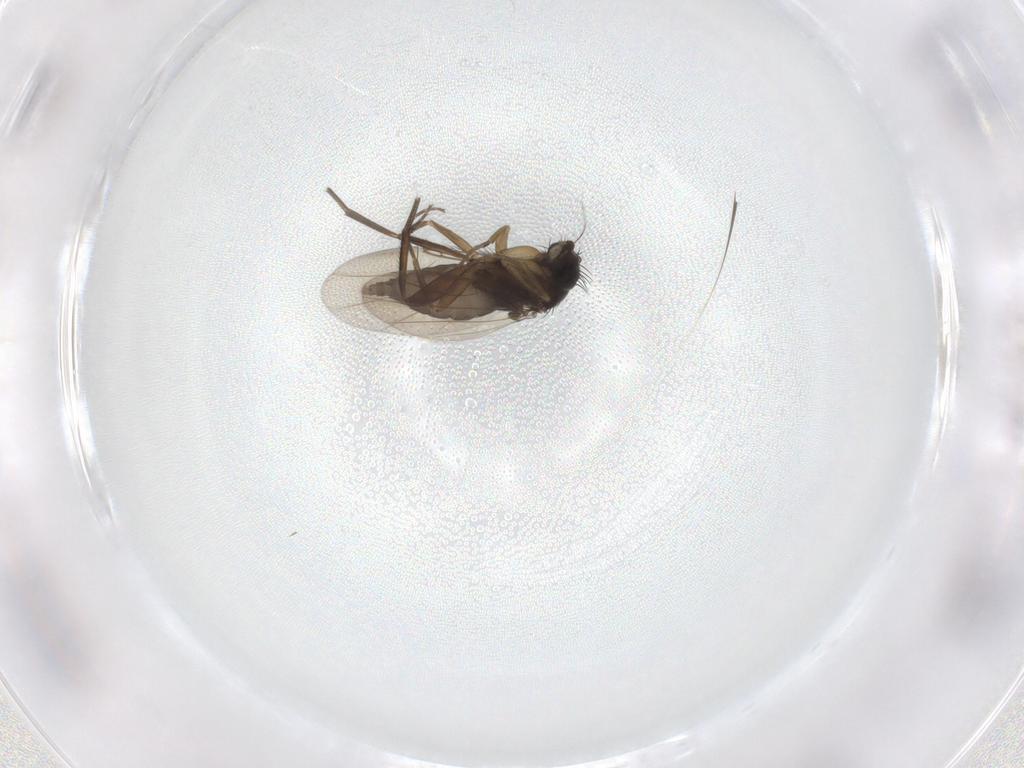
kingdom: Animalia
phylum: Arthropoda
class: Insecta
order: Diptera
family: Phoridae
